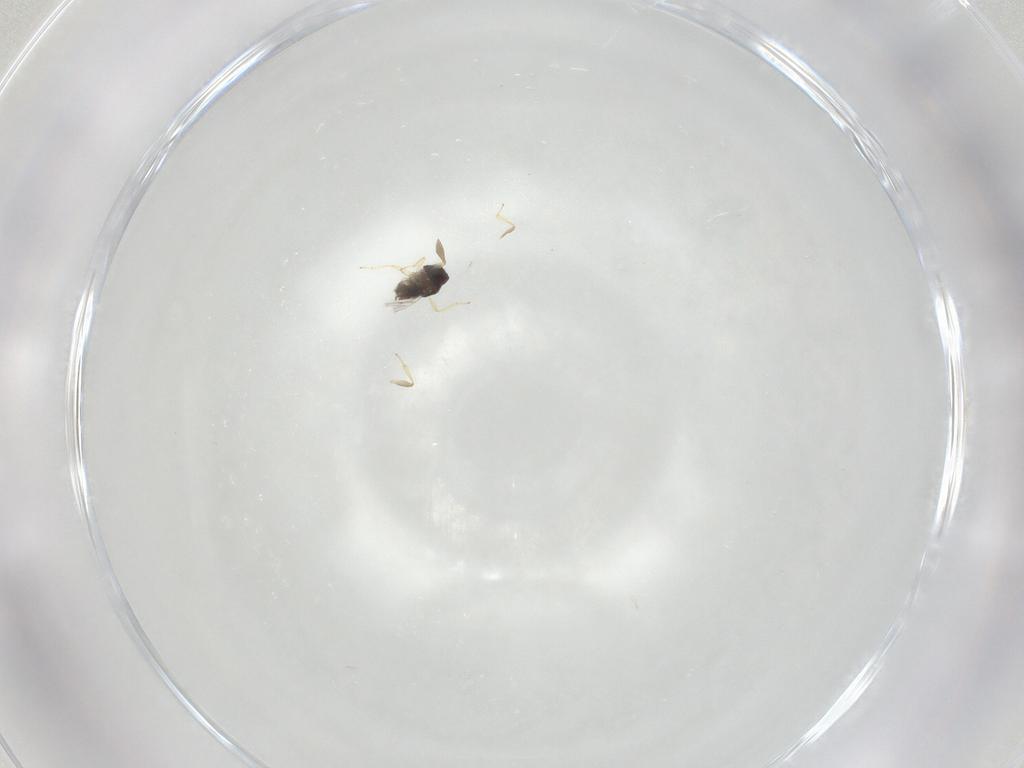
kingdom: Animalia
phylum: Arthropoda
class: Insecta
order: Hymenoptera
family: Encyrtidae
